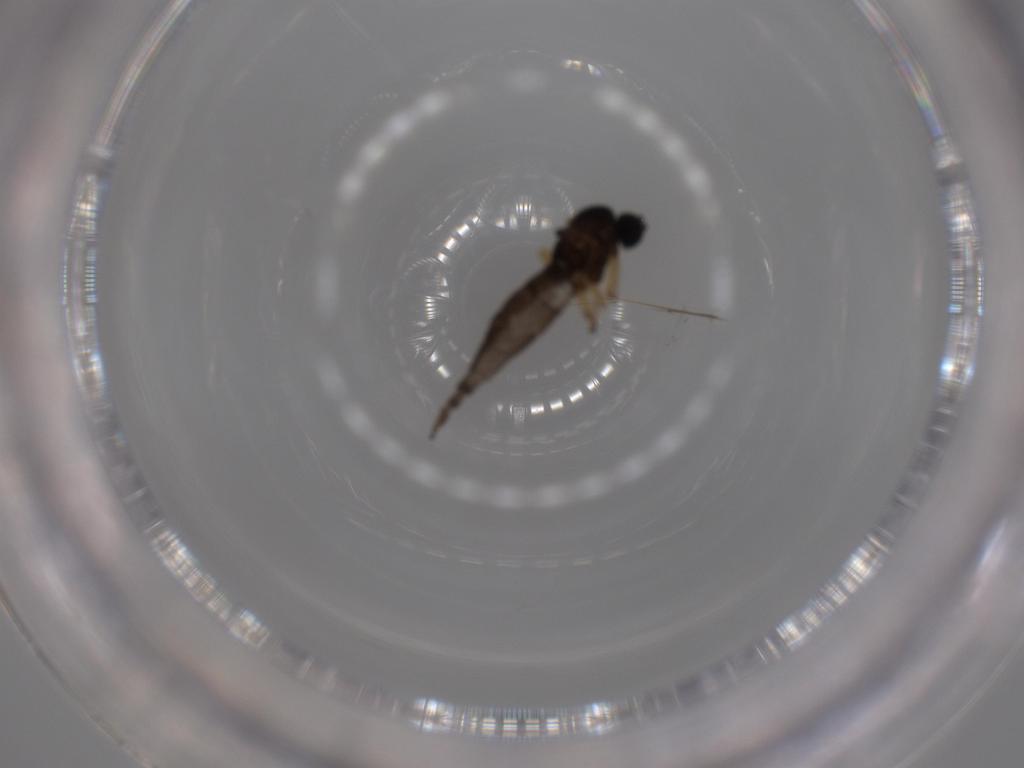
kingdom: Animalia
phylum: Arthropoda
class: Insecta
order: Diptera
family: Sciaridae
